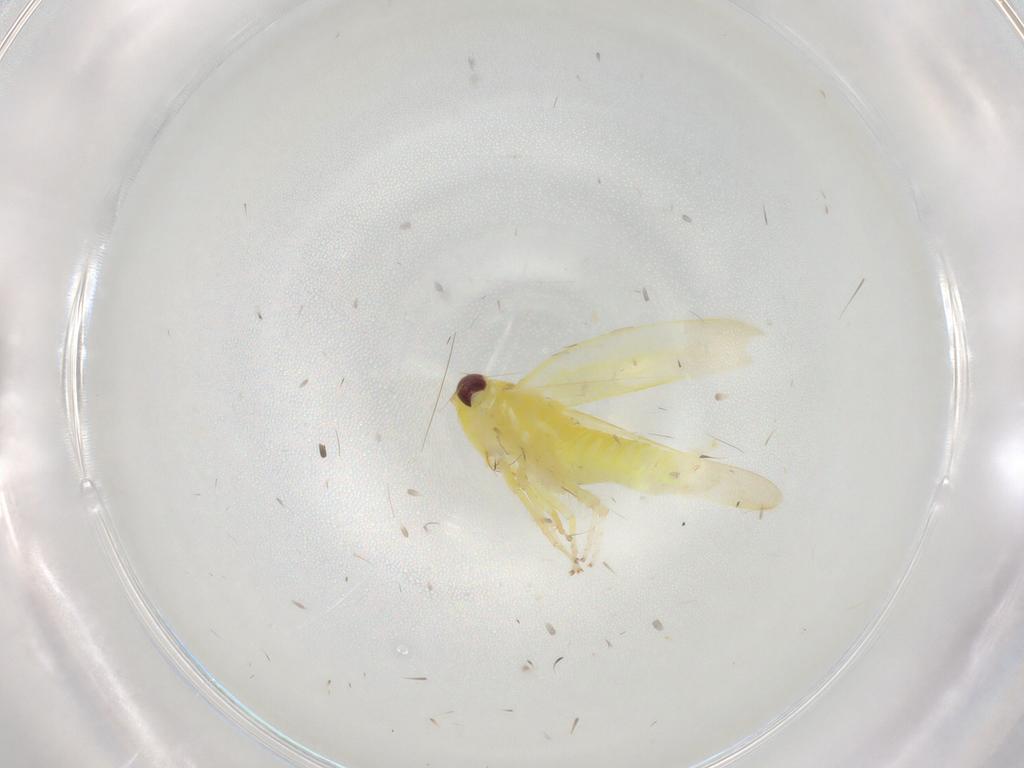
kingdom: Animalia
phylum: Arthropoda
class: Insecta
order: Hemiptera
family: Cicadellidae
